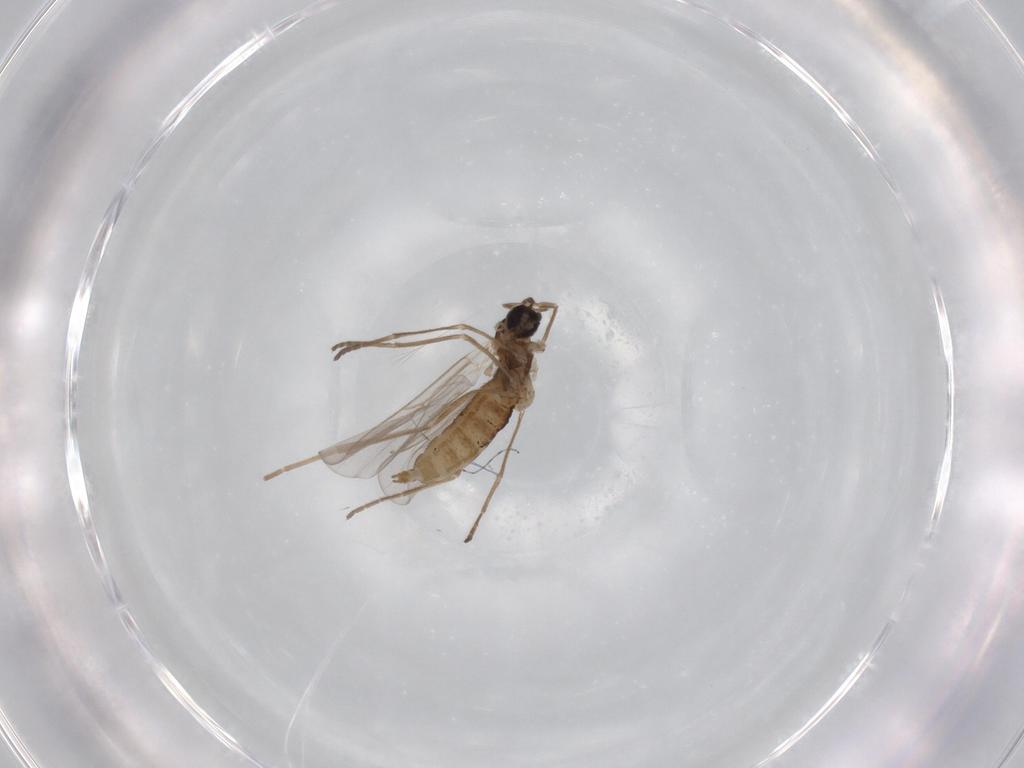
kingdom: Animalia
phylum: Arthropoda
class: Insecta
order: Diptera
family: Cecidomyiidae
